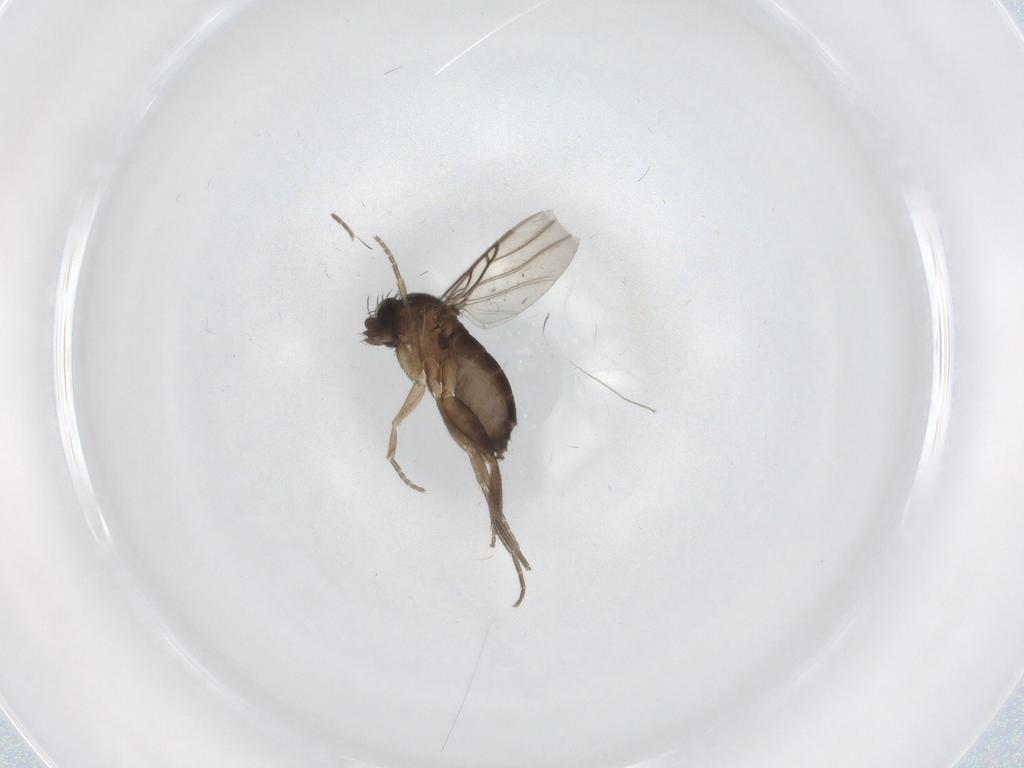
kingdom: Animalia
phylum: Arthropoda
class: Insecta
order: Diptera
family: Phoridae
